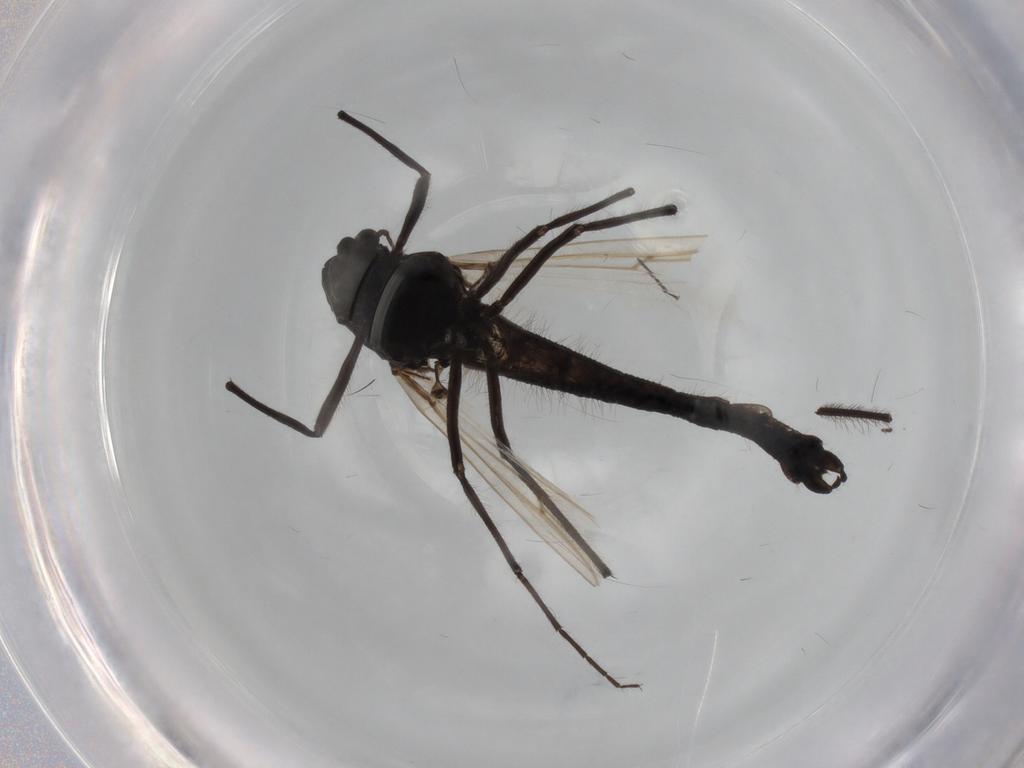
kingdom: Animalia
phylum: Arthropoda
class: Insecta
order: Diptera
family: Chironomidae
